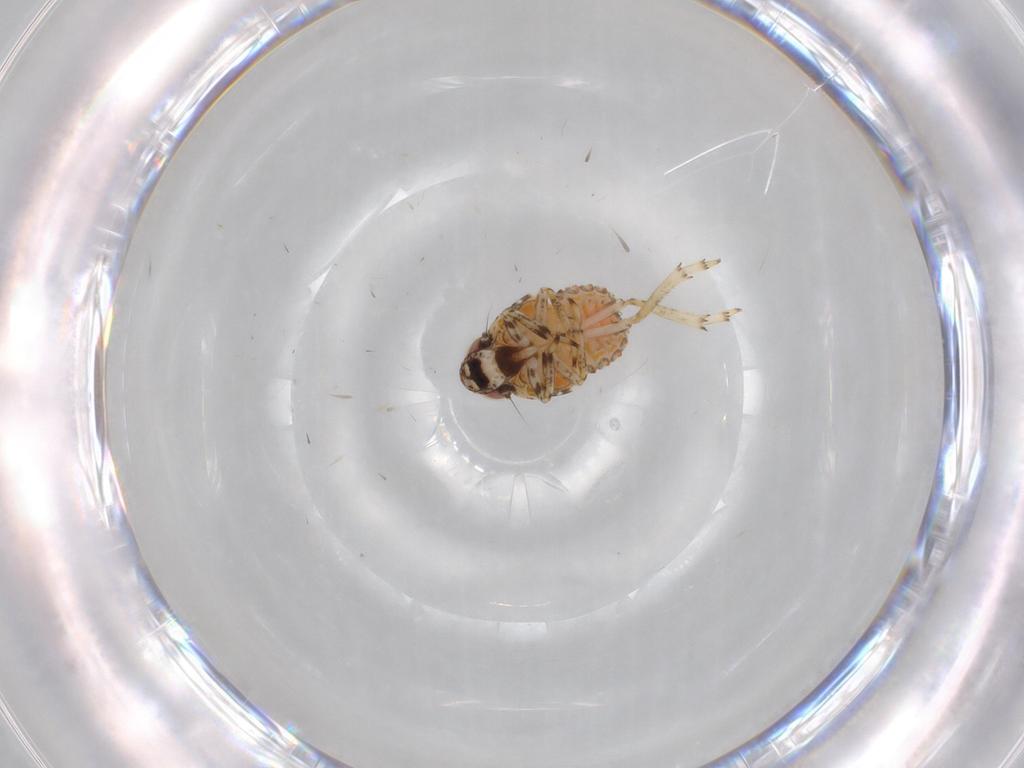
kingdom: Animalia
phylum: Arthropoda
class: Insecta
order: Hemiptera
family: Issidae
